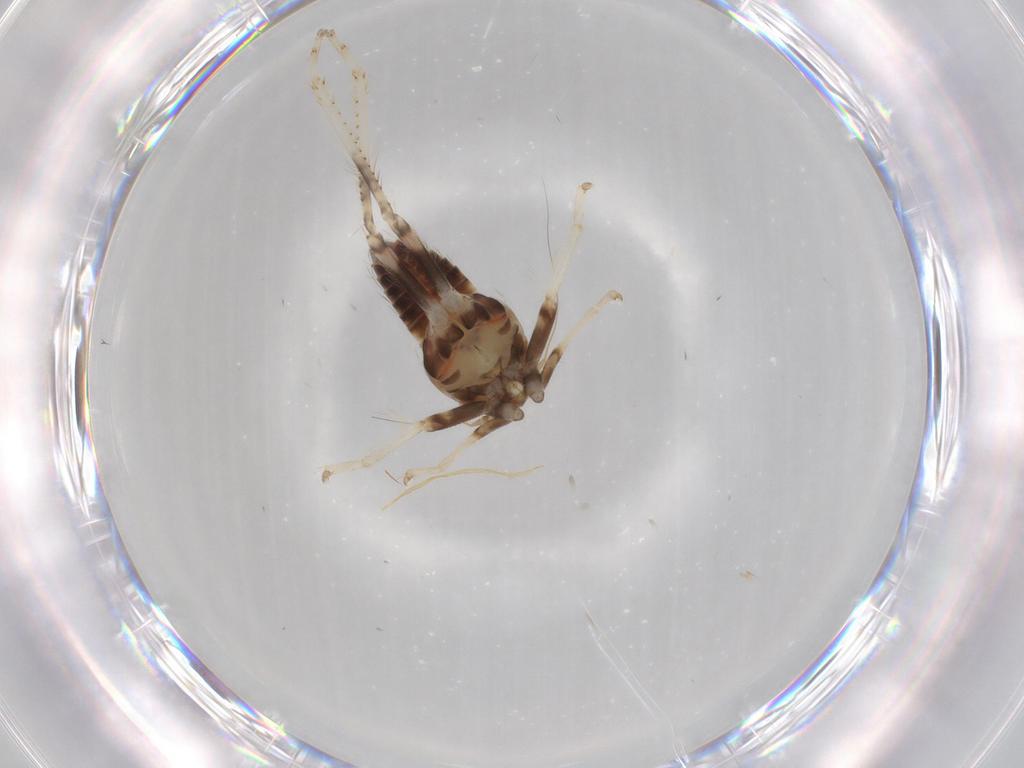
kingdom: Animalia
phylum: Arthropoda
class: Insecta
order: Hemiptera
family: Cicadellidae
